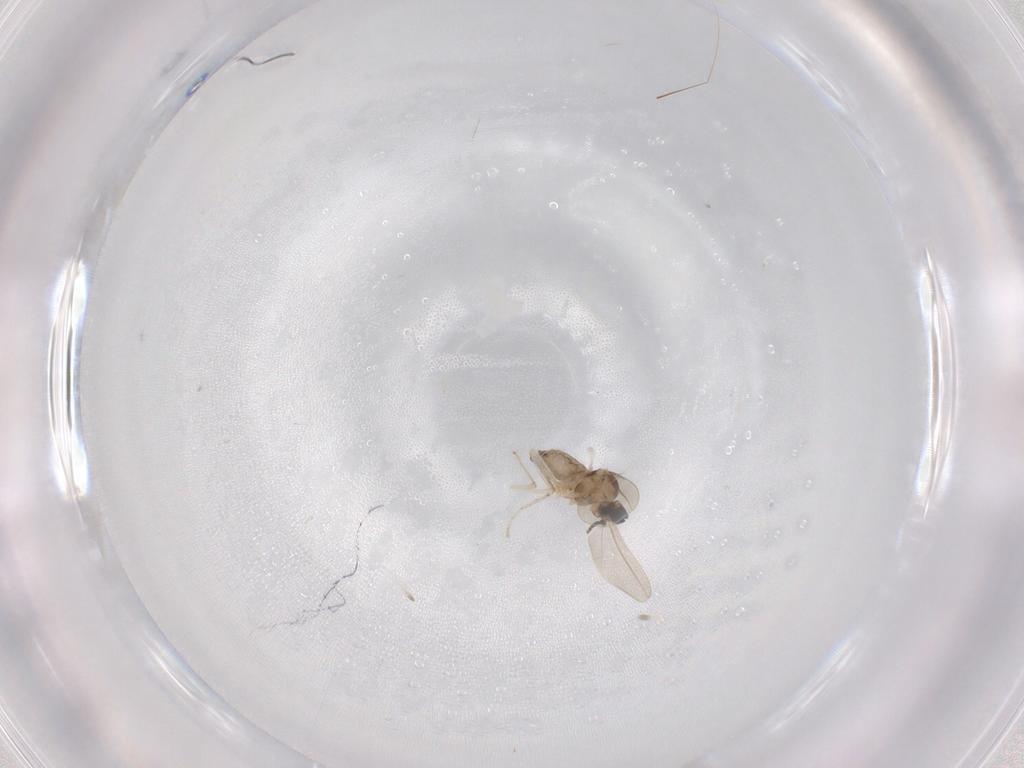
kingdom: Animalia
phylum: Arthropoda
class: Insecta
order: Diptera
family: Cecidomyiidae
